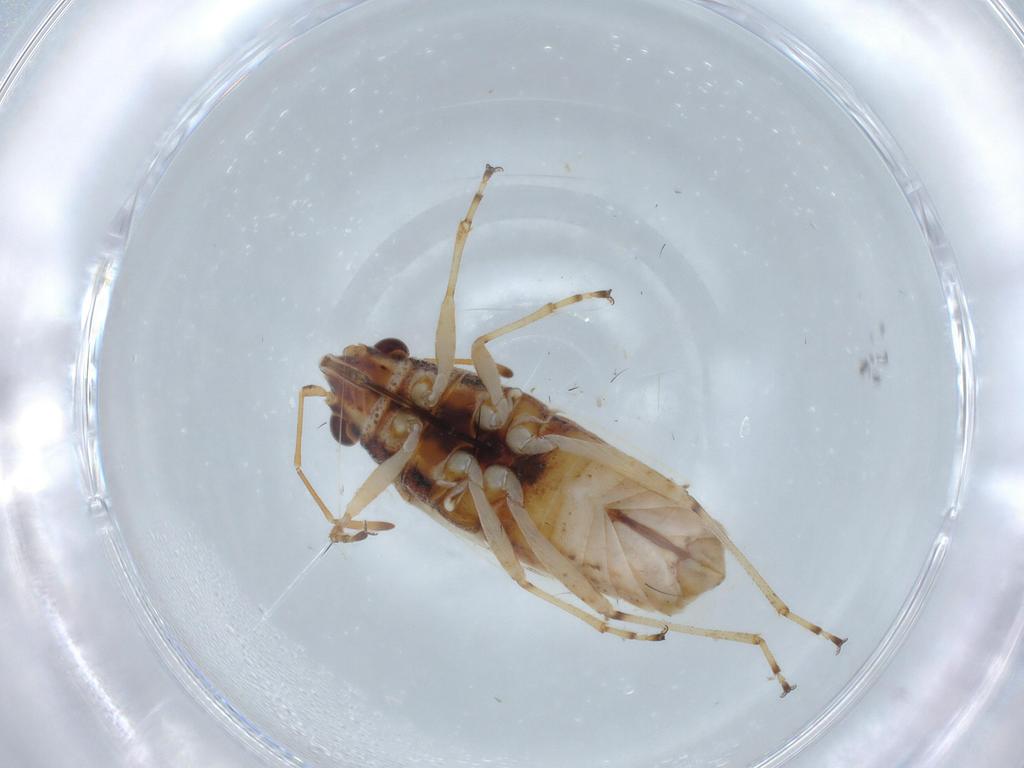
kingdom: Animalia
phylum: Arthropoda
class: Insecta
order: Hemiptera
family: Lygaeidae
